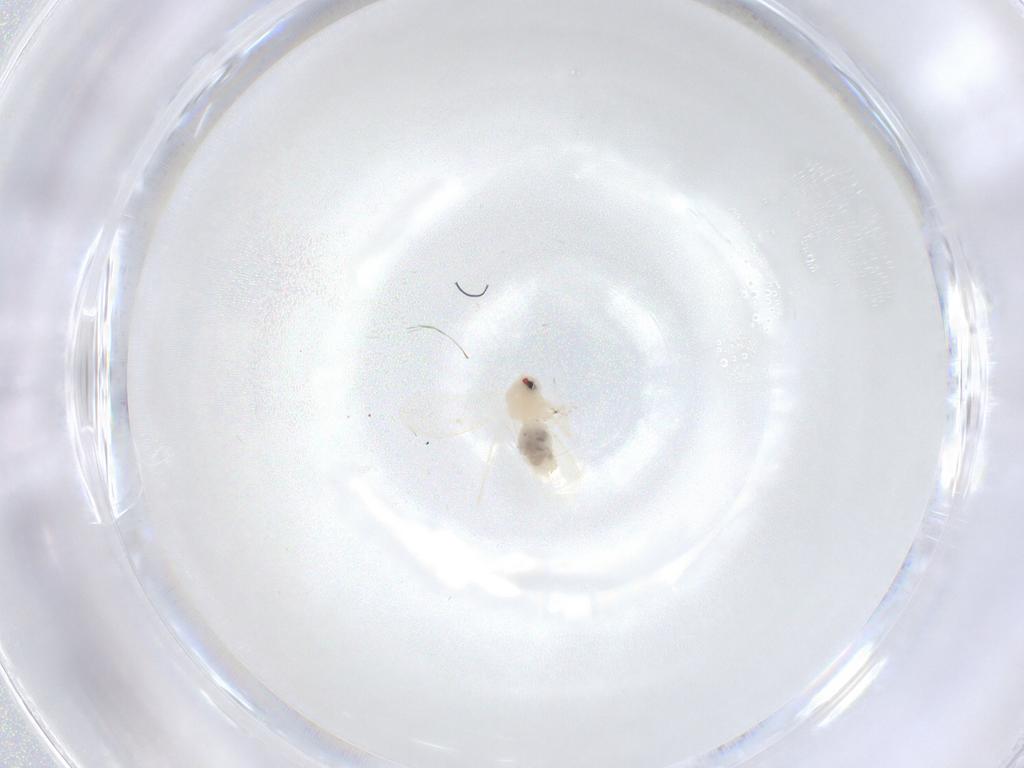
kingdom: Animalia
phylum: Arthropoda
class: Insecta
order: Hemiptera
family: Aleyrodidae
